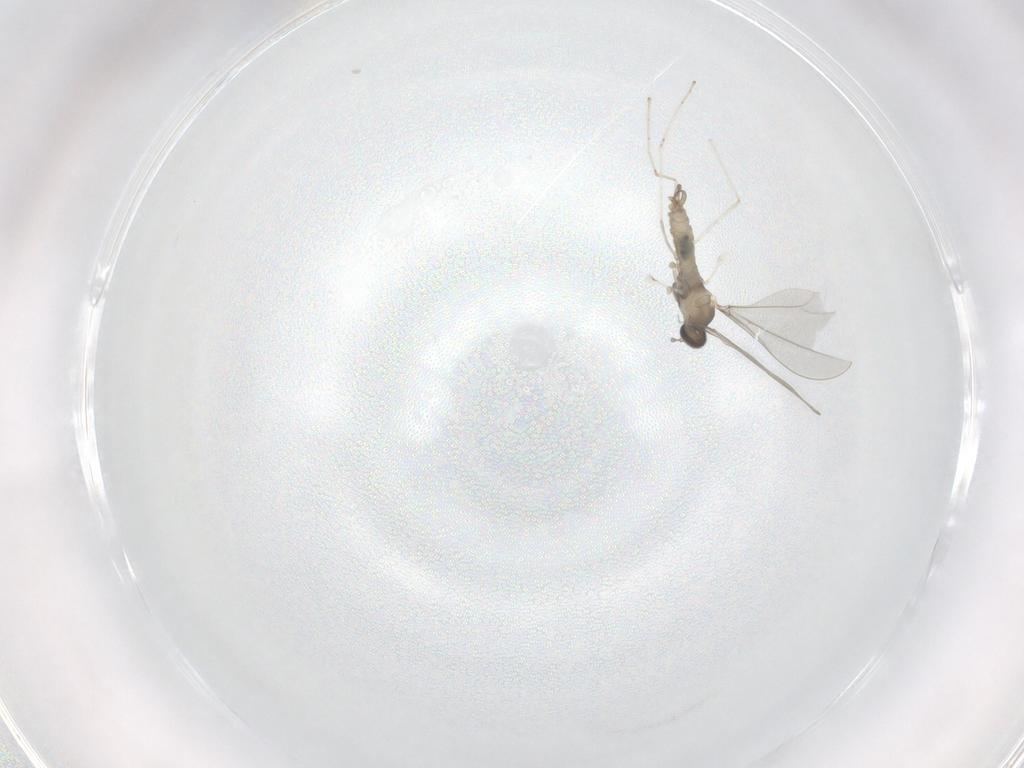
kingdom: Animalia
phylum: Arthropoda
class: Insecta
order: Diptera
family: Cecidomyiidae
